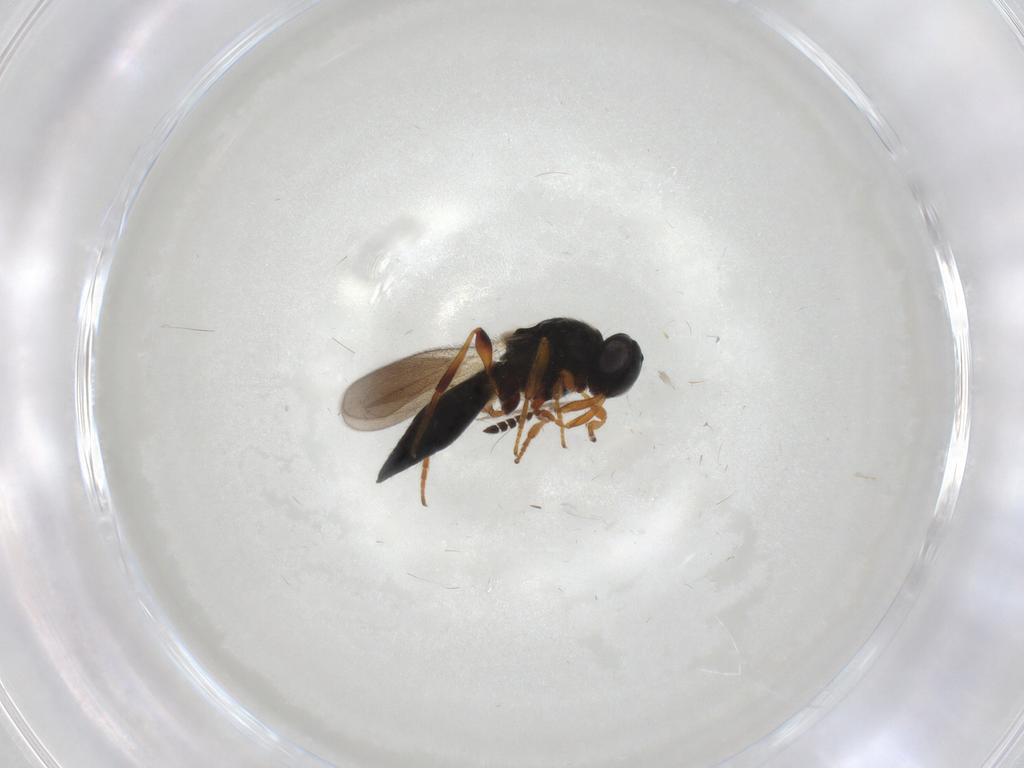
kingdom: Animalia
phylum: Arthropoda
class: Insecta
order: Hymenoptera
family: Platygastridae
